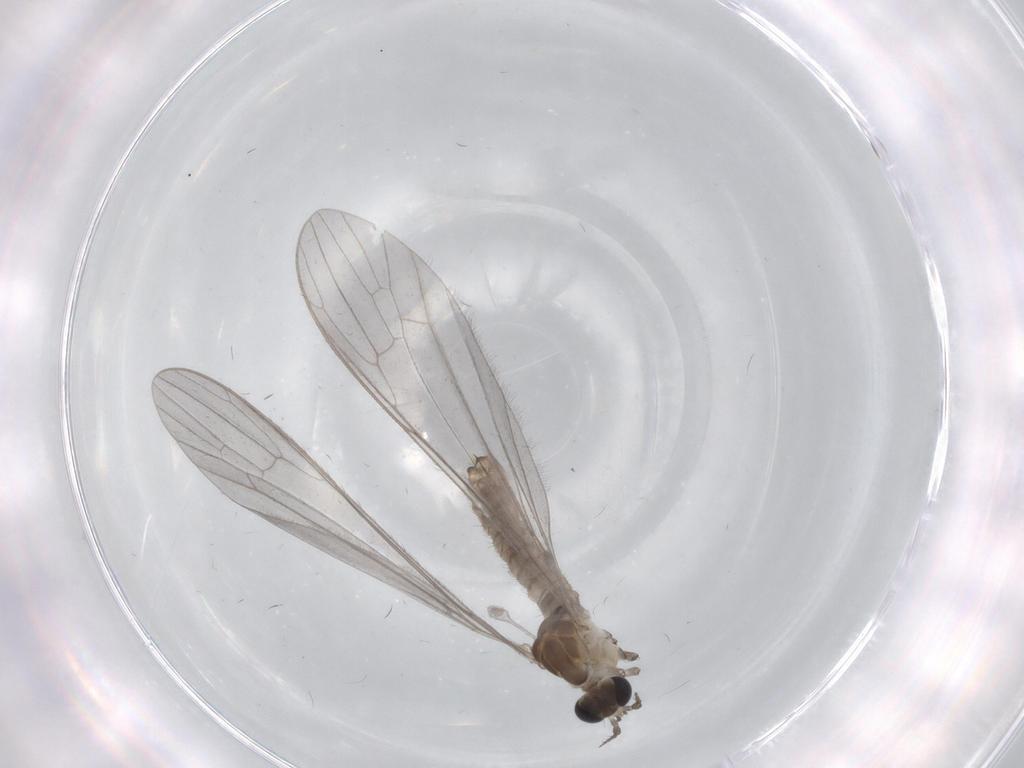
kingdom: Animalia
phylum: Arthropoda
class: Insecta
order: Diptera
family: Limoniidae
